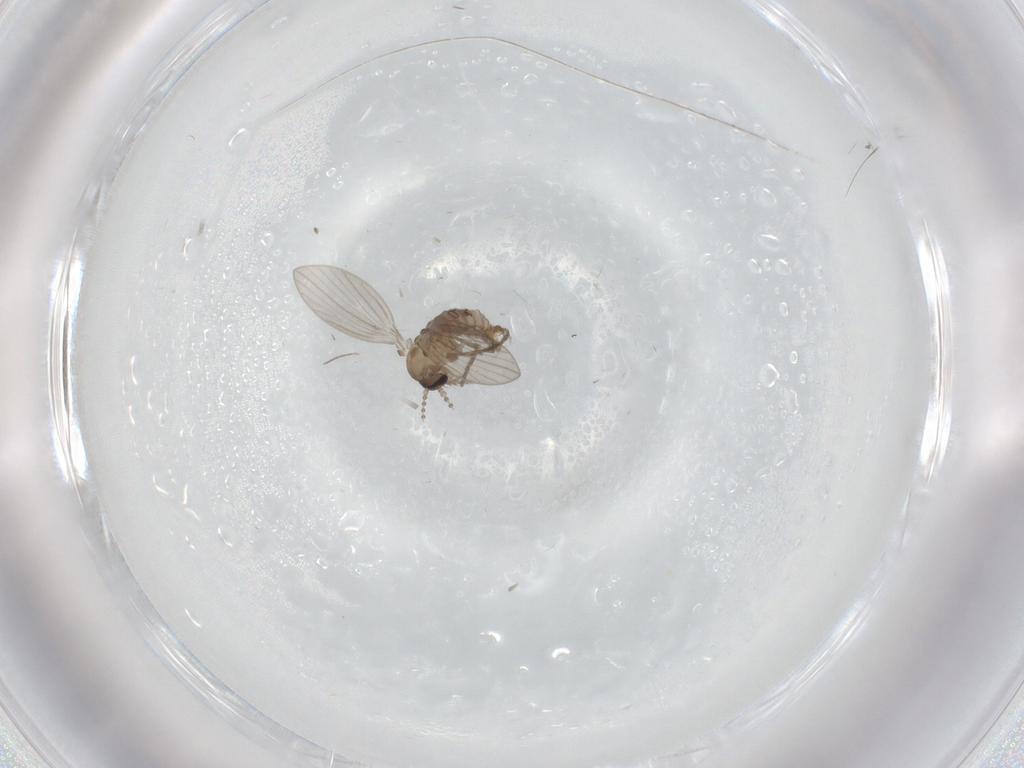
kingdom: Animalia
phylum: Arthropoda
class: Insecta
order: Diptera
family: Psychodidae
